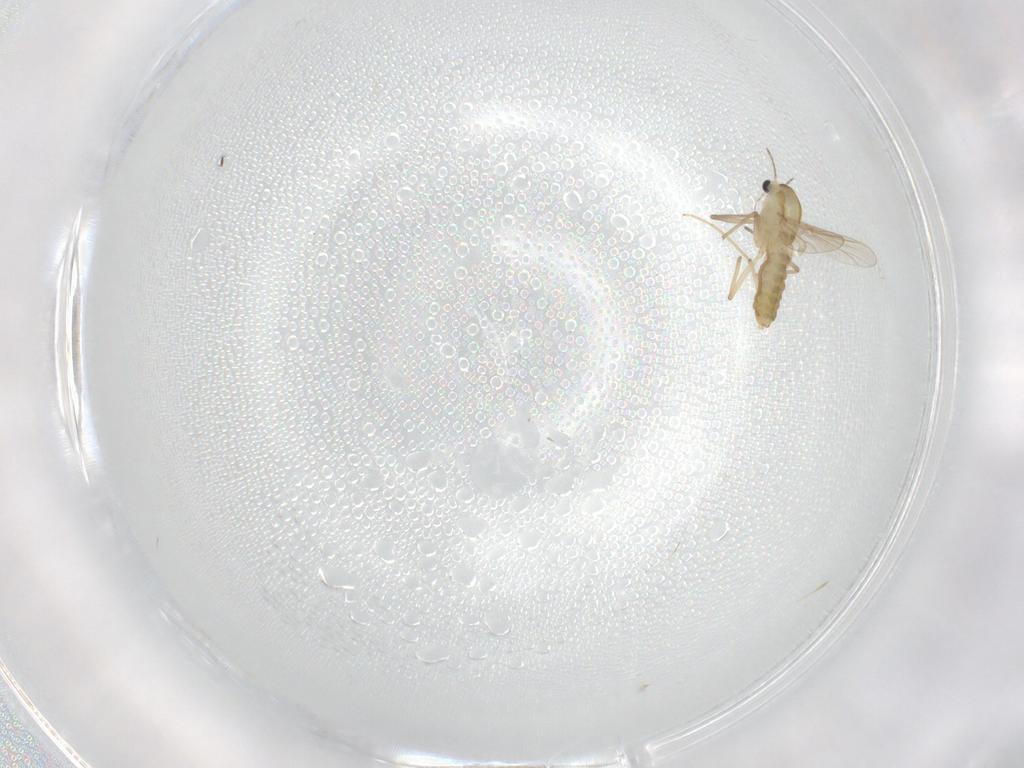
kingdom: Animalia
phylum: Arthropoda
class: Insecta
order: Diptera
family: Chironomidae
